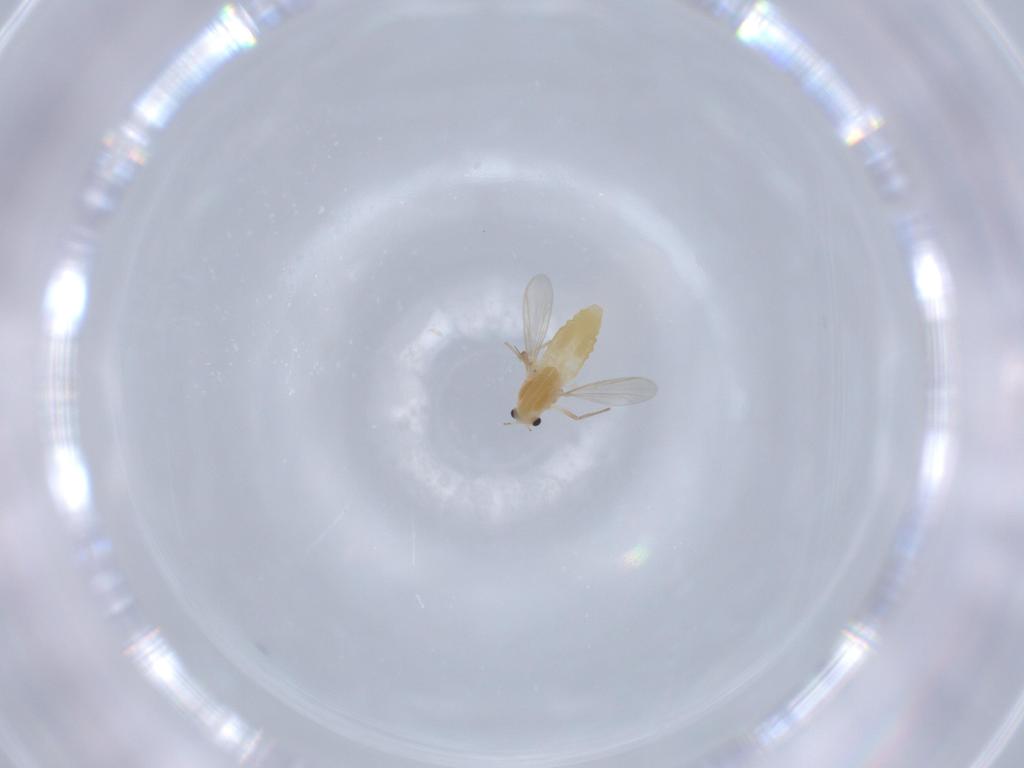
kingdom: Animalia
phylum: Arthropoda
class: Insecta
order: Diptera
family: Chironomidae
